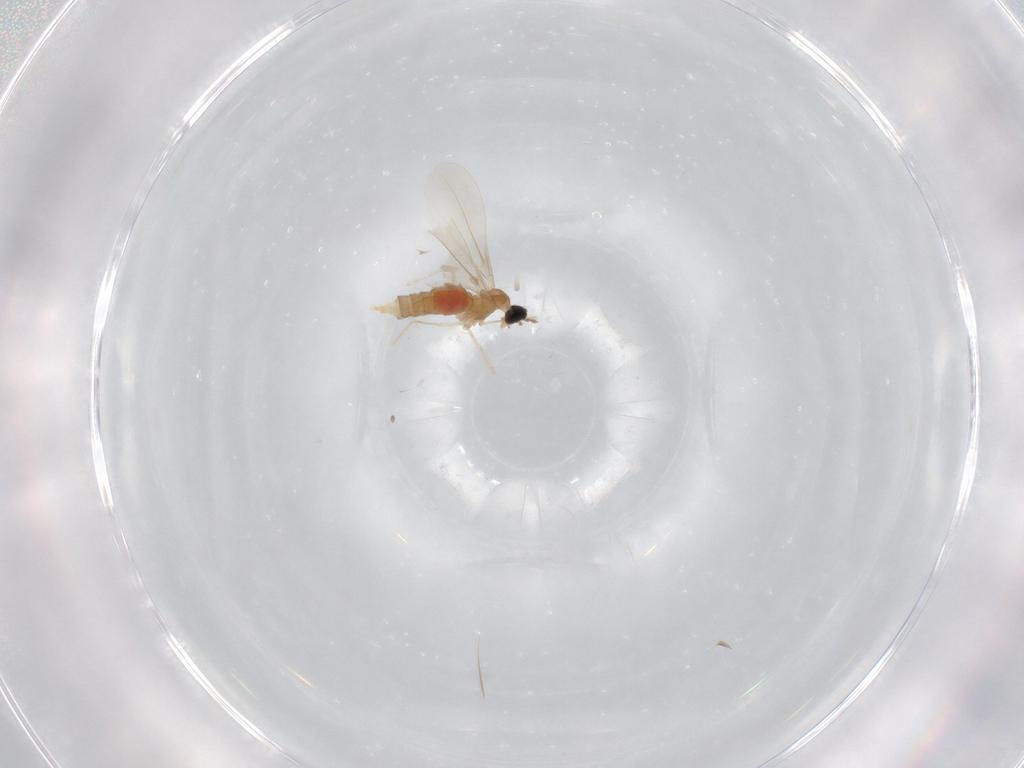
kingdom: Animalia
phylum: Arthropoda
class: Insecta
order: Diptera
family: Cecidomyiidae
